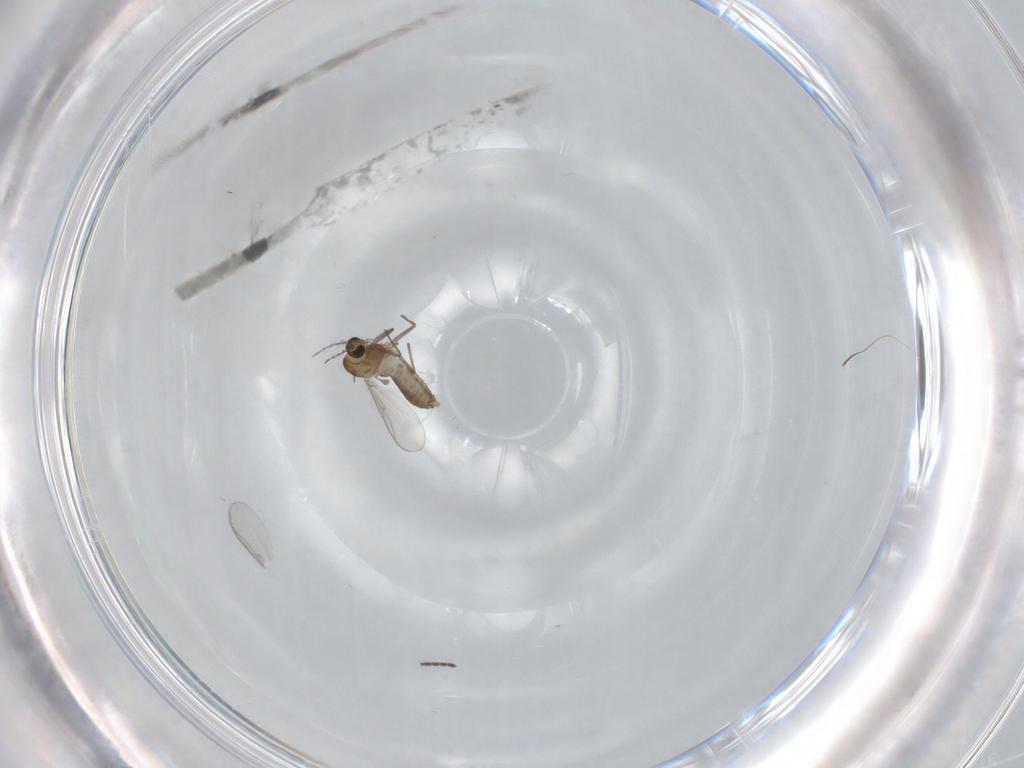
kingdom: Animalia
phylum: Arthropoda
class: Insecta
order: Diptera
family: Chironomidae
